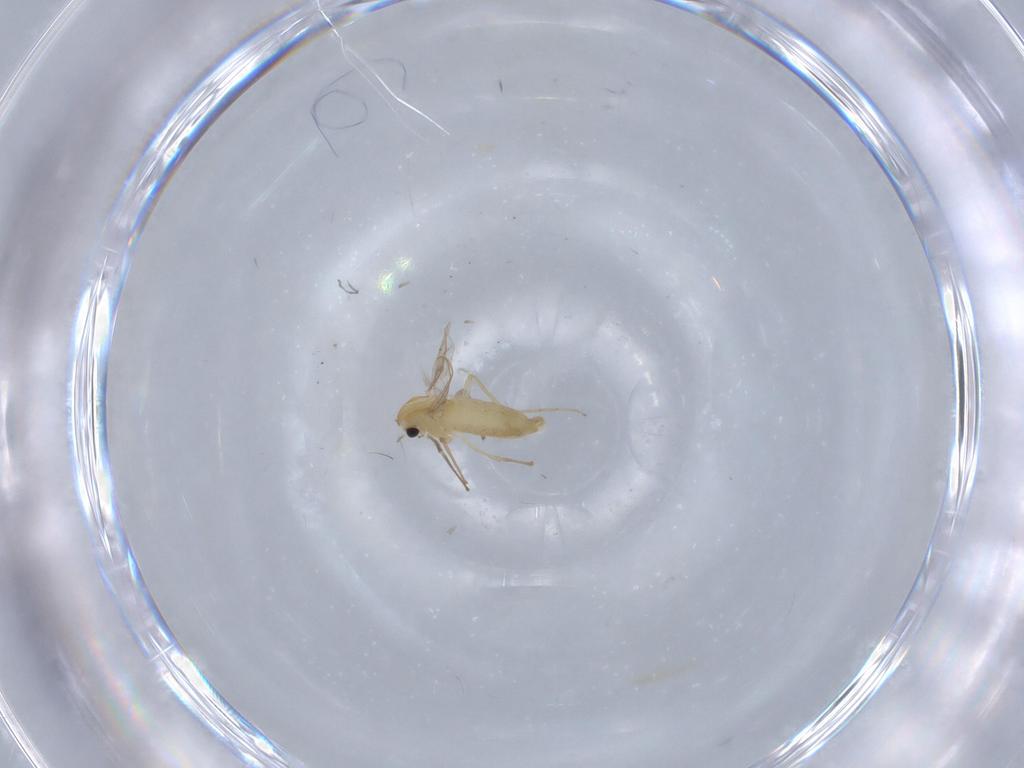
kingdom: Animalia
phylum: Arthropoda
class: Insecta
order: Diptera
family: Chironomidae
